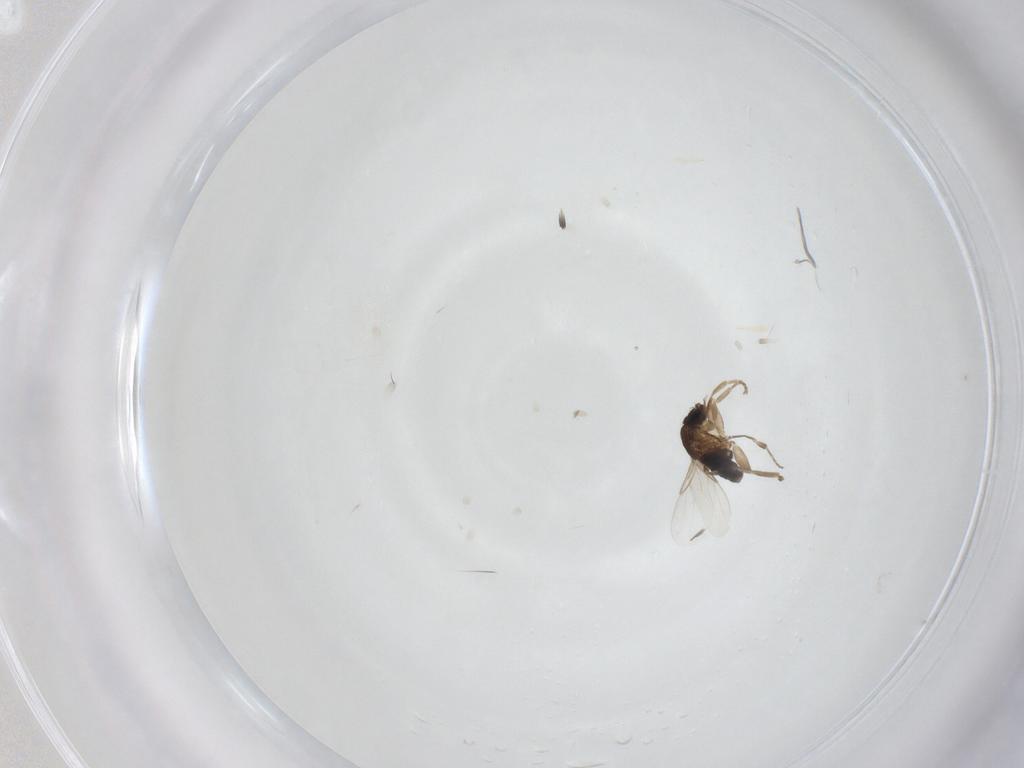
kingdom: Animalia
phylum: Arthropoda
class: Insecta
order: Diptera
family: Phoridae
